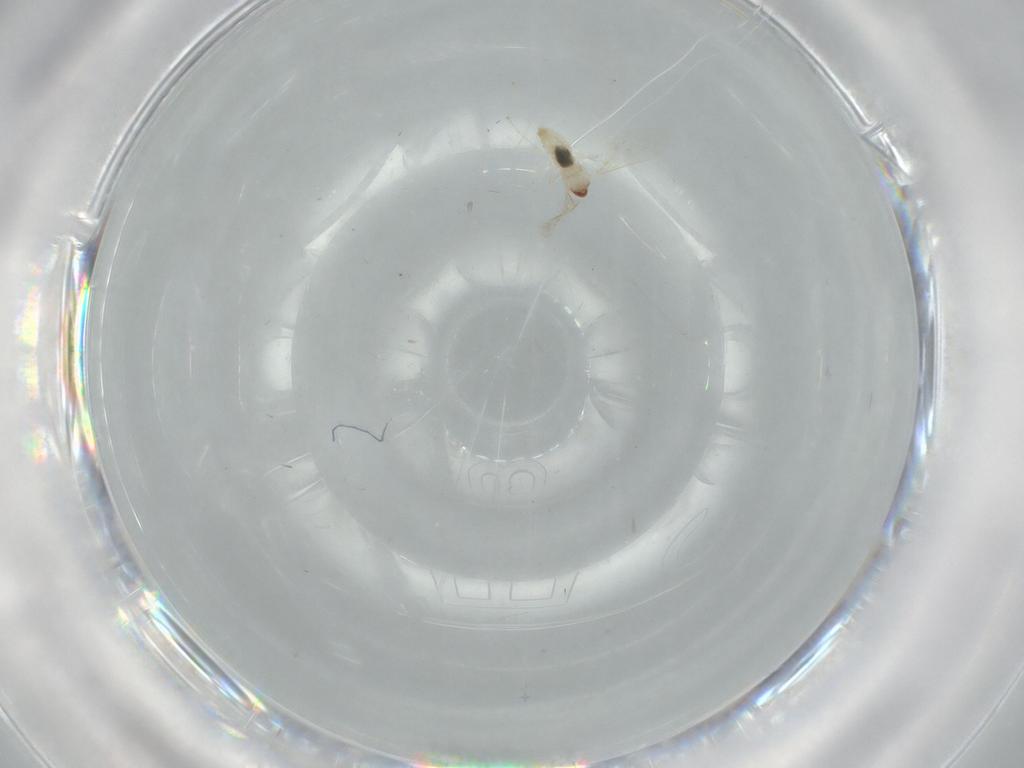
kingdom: Animalia
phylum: Arthropoda
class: Insecta
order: Diptera
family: Sphaeroceridae
